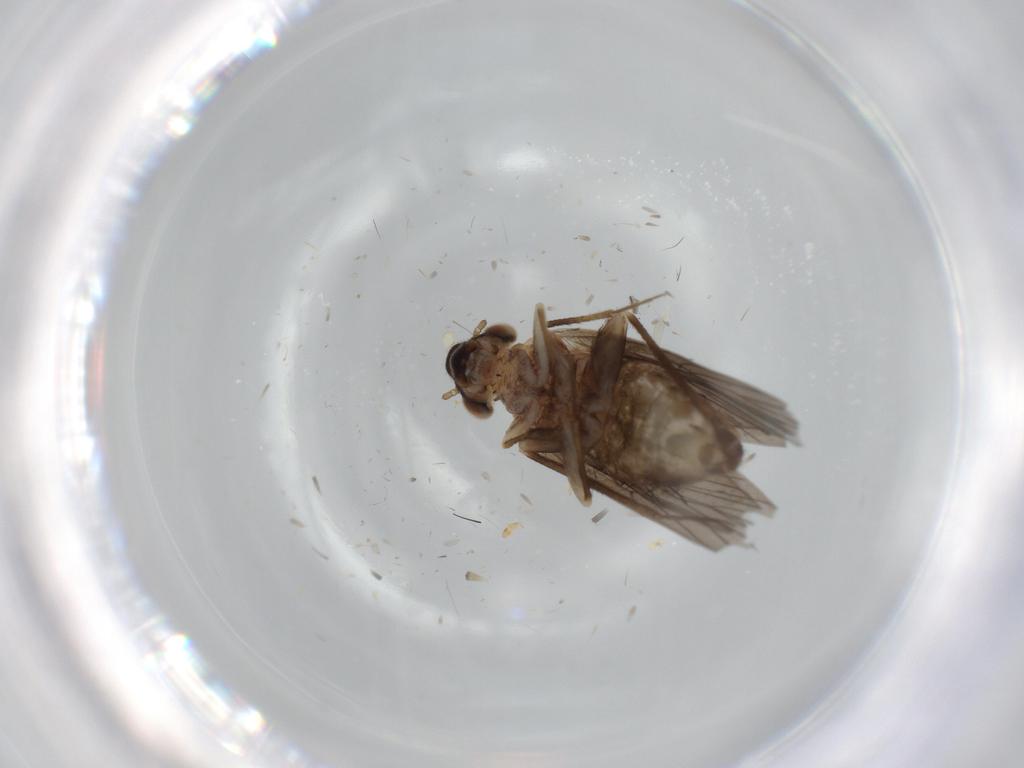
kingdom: Animalia
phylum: Arthropoda
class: Insecta
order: Psocodea
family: Lepidopsocidae
